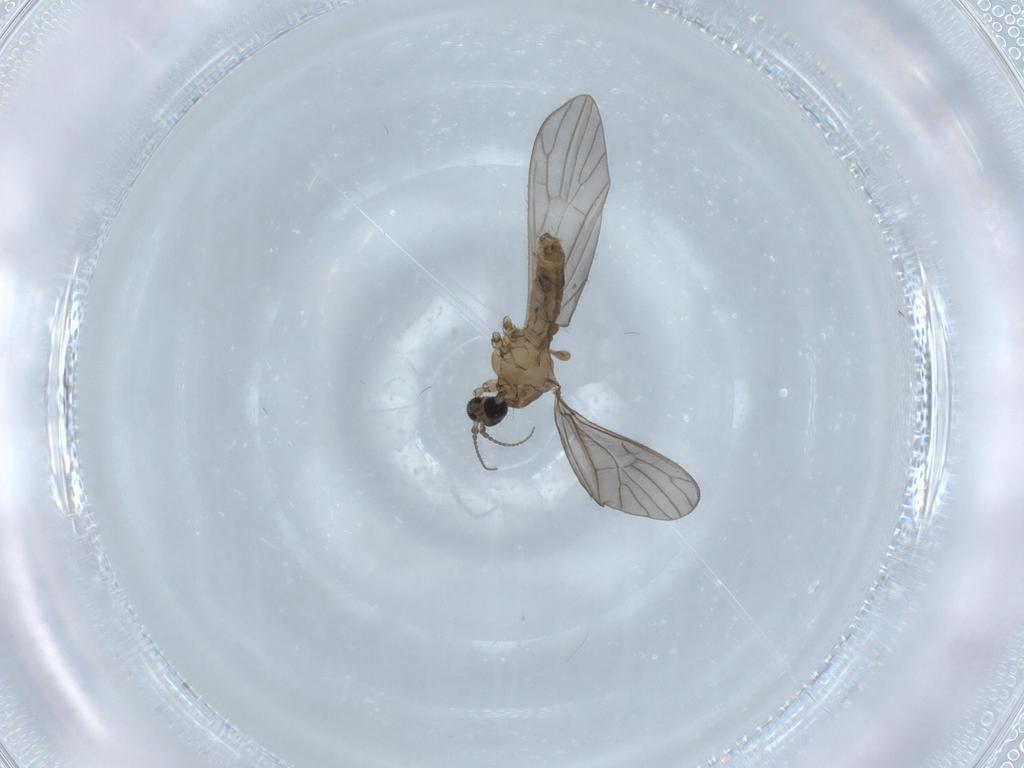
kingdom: Animalia
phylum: Arthropoda
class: Insecta
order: Diptera
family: Limoniidae
